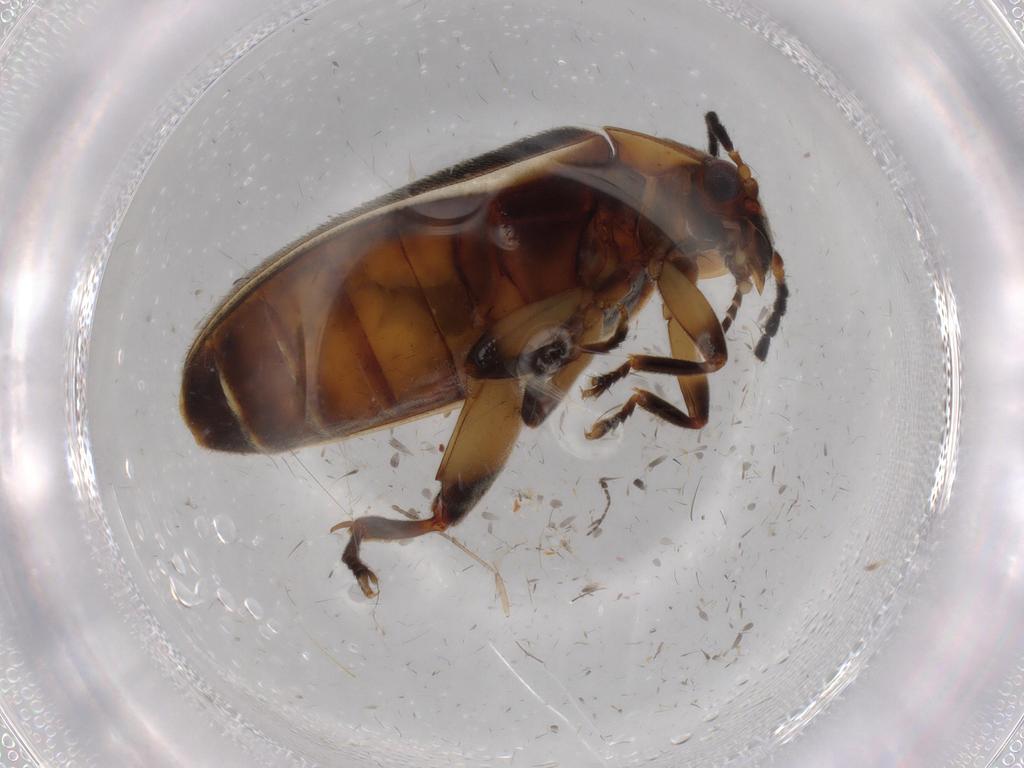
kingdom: Animalia
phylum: Arthropoda
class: Insecta
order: Coleoptera
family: Scirtidae
